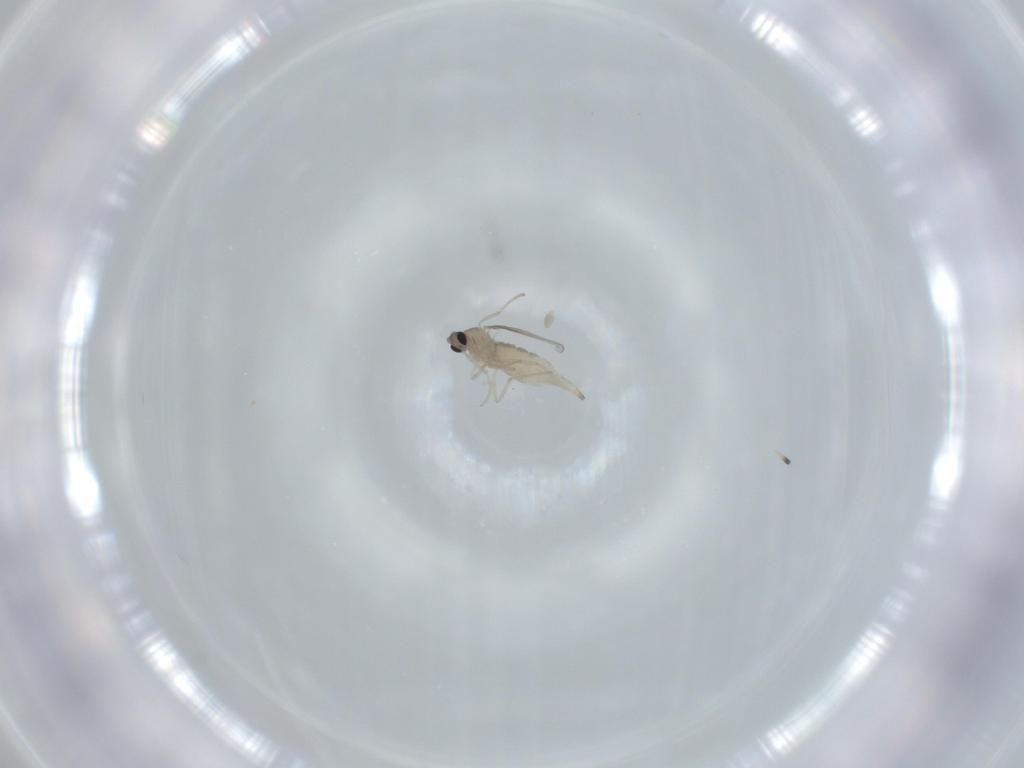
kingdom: Animalia
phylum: Arthropoda
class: Insecta
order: Diptera
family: Cecidomyiidae
